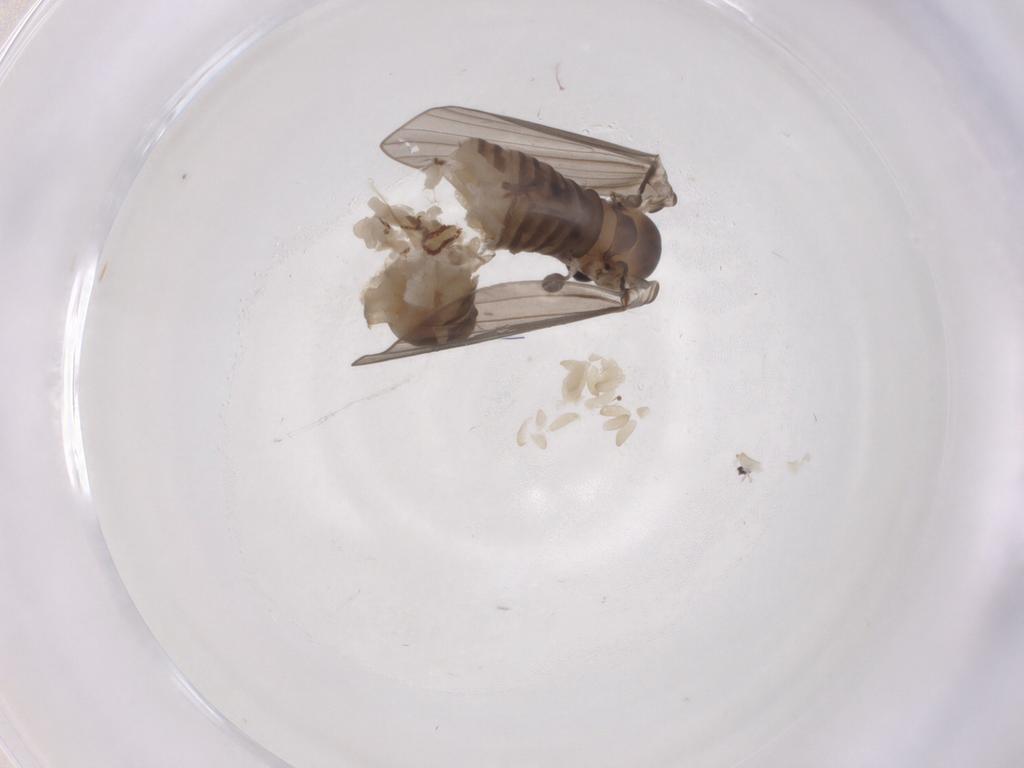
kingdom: Animalia
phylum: Arthropoda
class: Insecta
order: Diptera
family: Psychodidae
